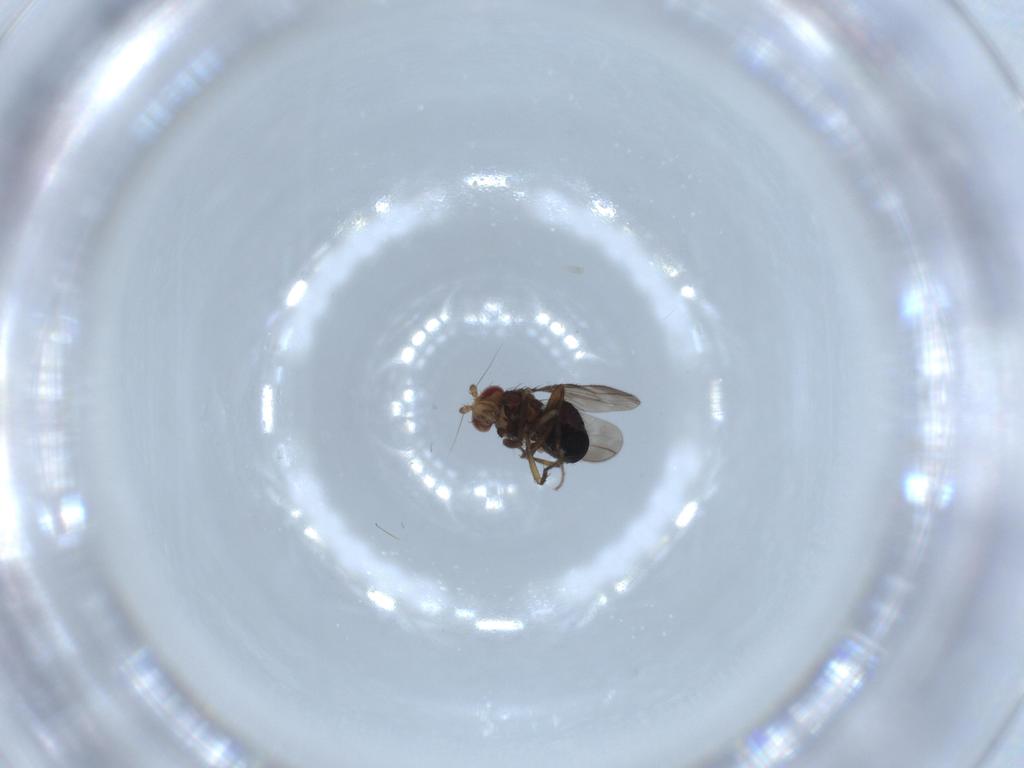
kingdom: Animalia
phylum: Arthropoda
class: Insecta
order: Diptera
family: Sphaeroceridae
